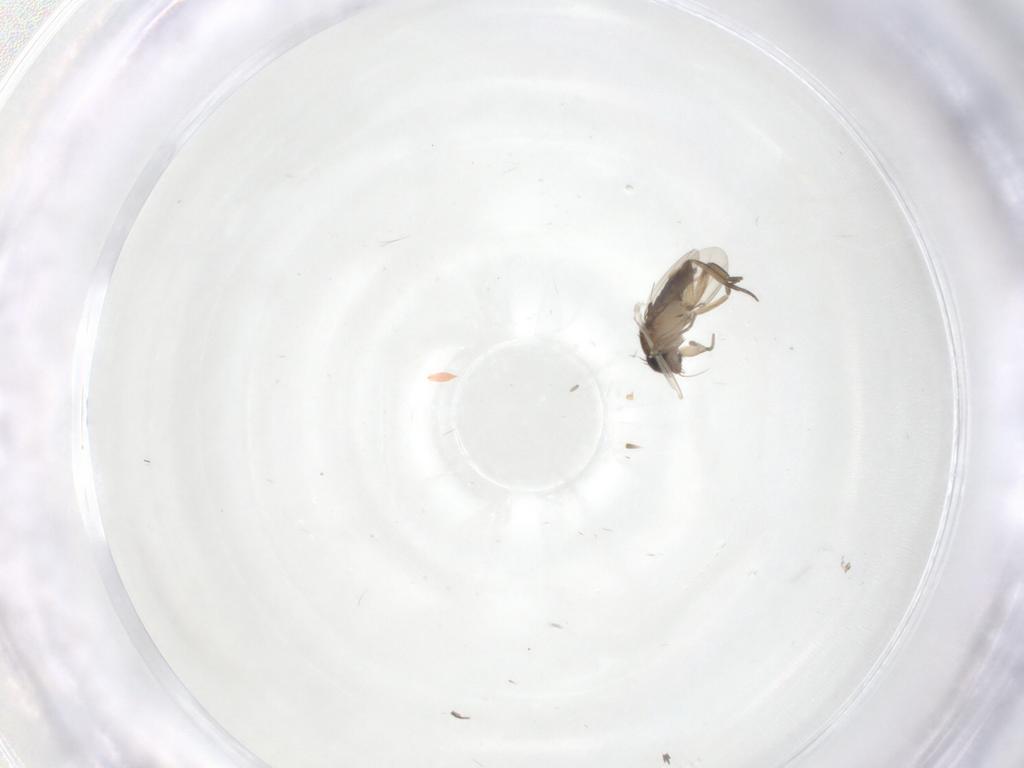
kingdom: Animalia
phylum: Arthropoda
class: Insecta
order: Diptera
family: Phoridae
